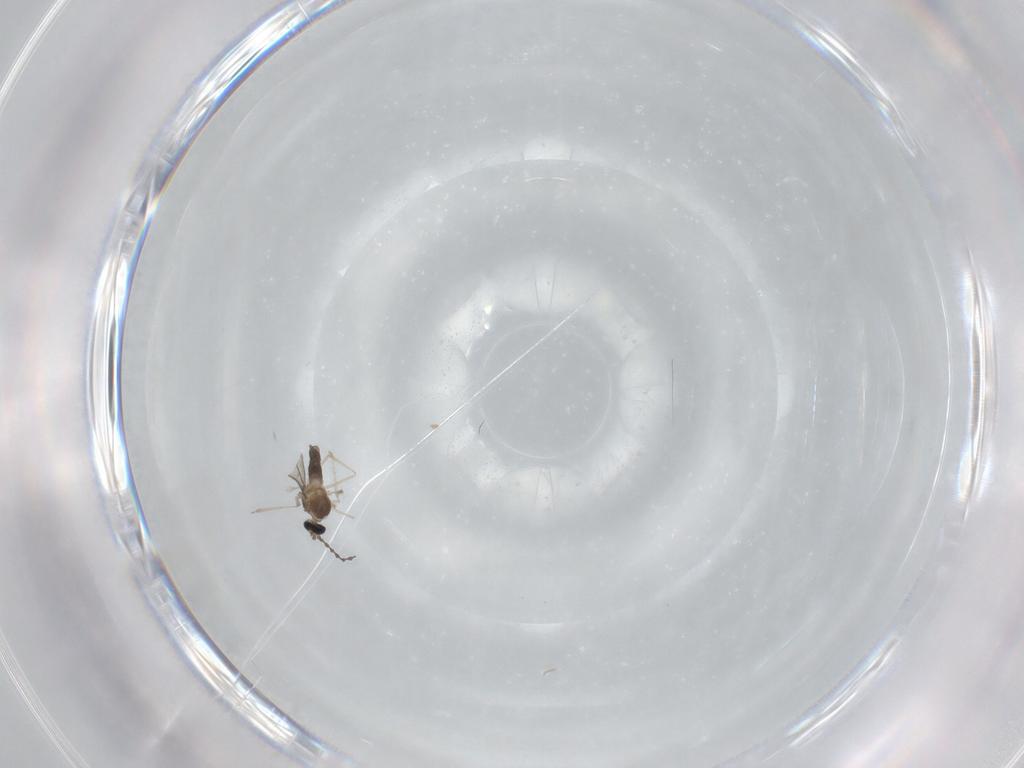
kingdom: Animalia
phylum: Arthropoda
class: Insecta
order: Diptera
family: Cecidomyiidae
